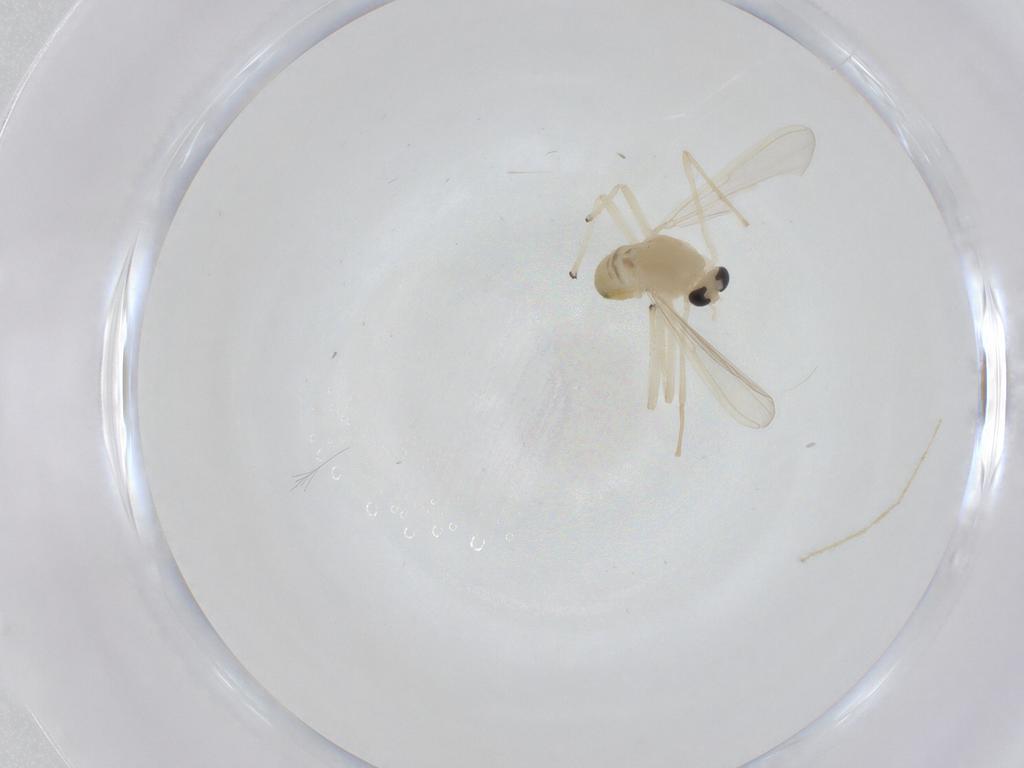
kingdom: Animalia
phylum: Arthropoda
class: Insecta
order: Diptera
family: Chironomidae
